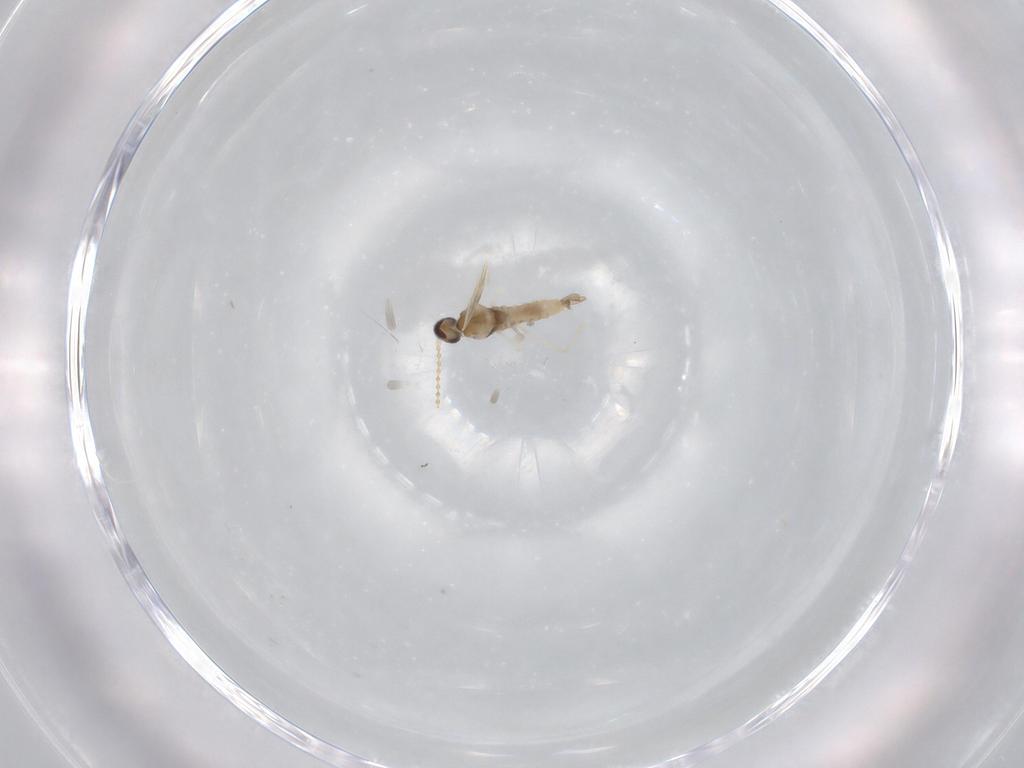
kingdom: Animalia
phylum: Arthropoda
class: Insecta
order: Diptera
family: Cecidomyiidae
